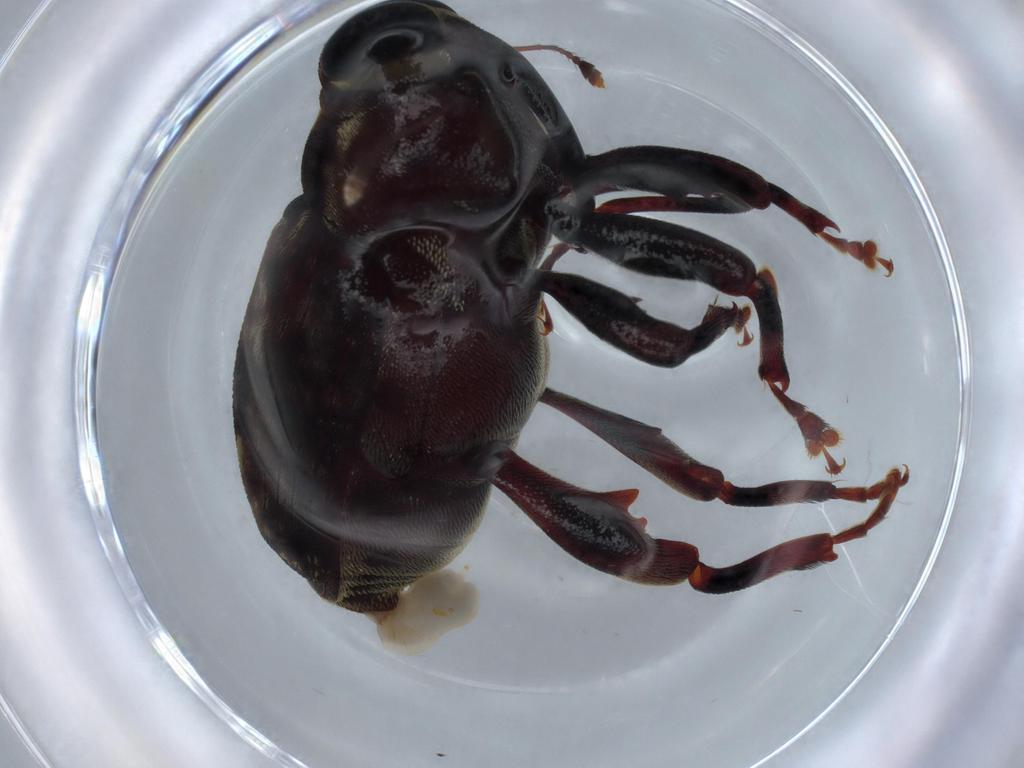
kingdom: Animalia
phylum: Arthropoda
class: Insecta
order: Coleoptera
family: Curculionidae
